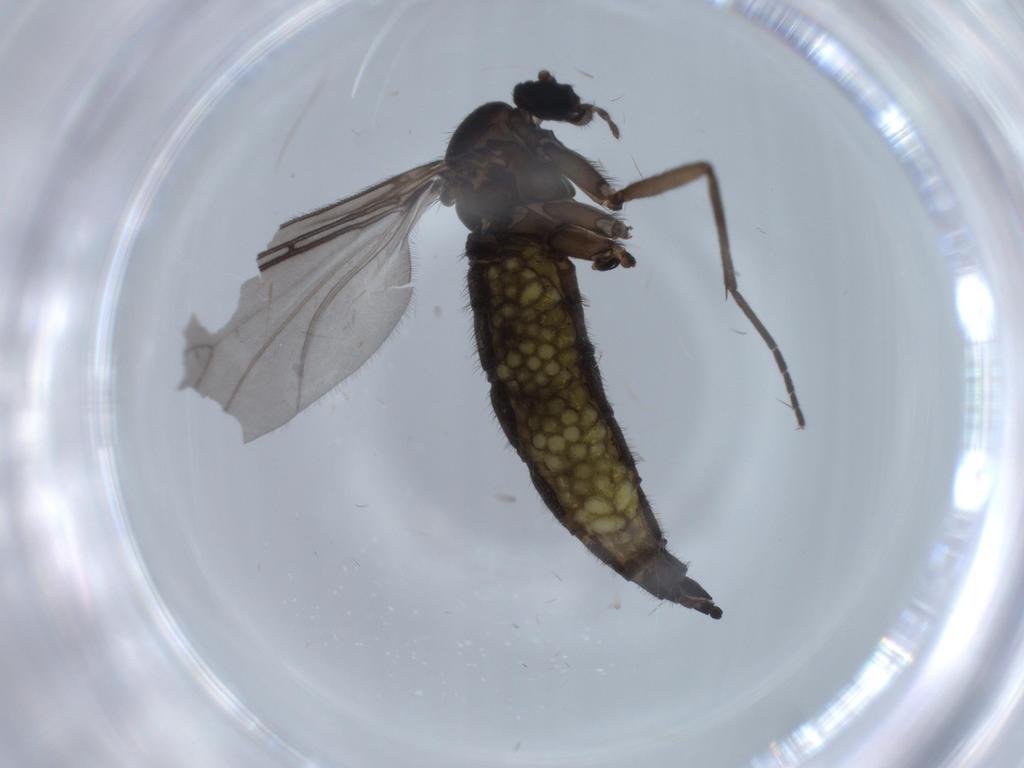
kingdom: Animalia
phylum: Arthropoda
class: Insecta
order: Diptera
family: Sciaridae
